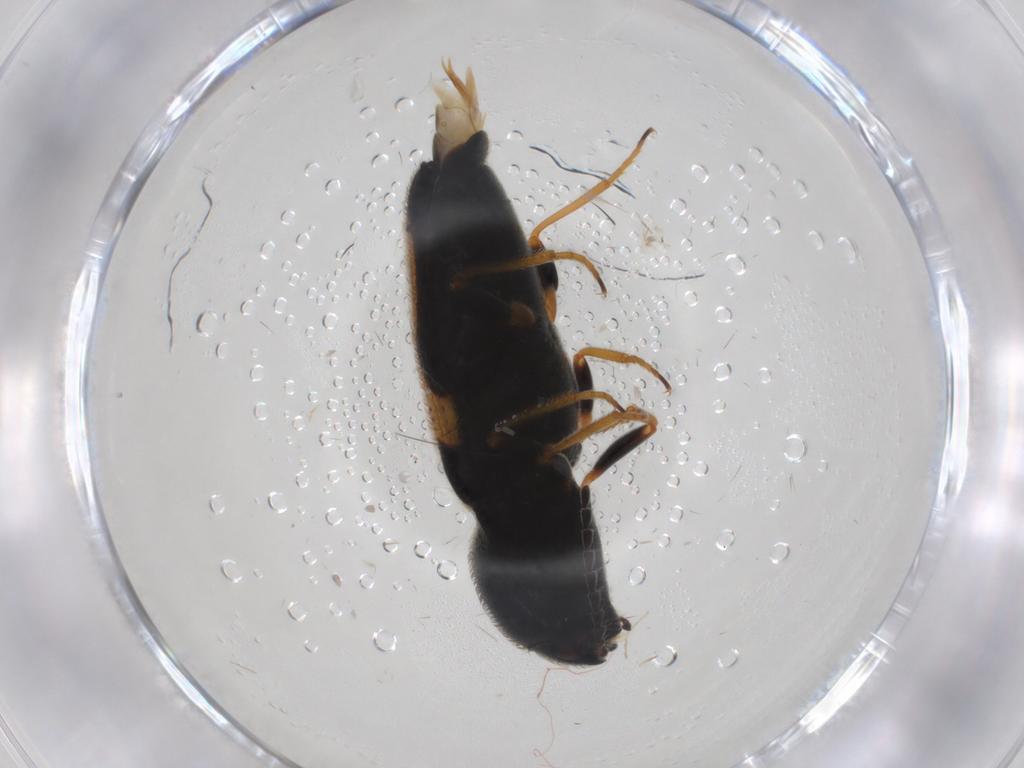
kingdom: Animalia
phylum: Arthropoda
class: Insecta
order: Coleoptera
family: Elateridae
